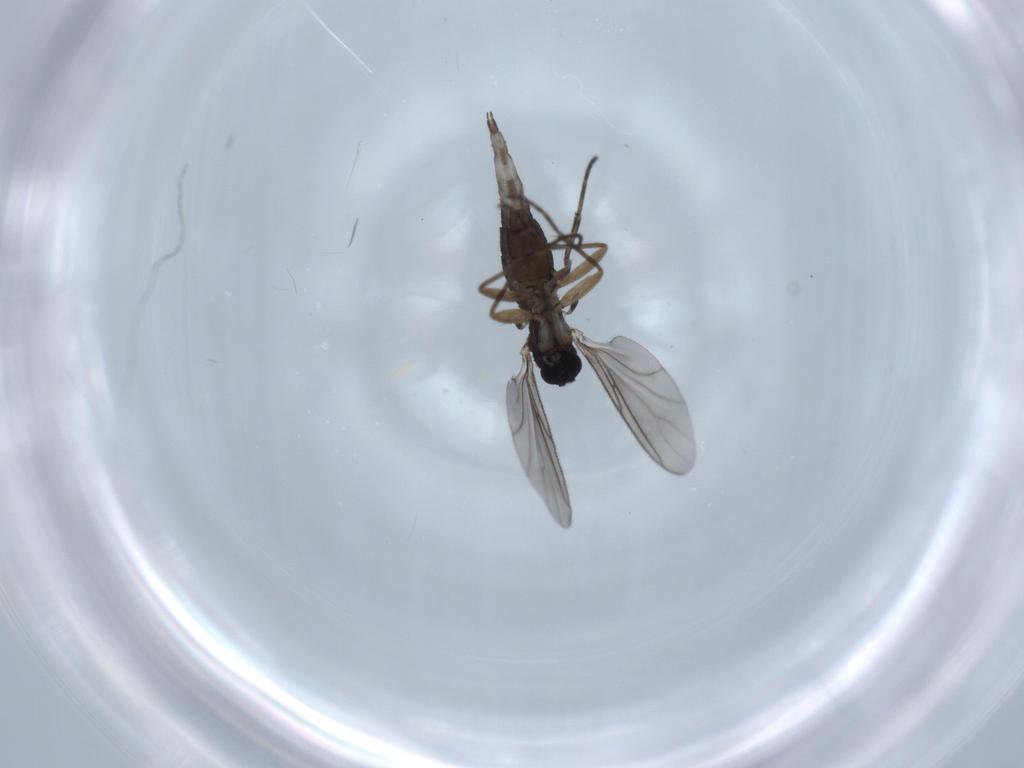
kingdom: Animalia
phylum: Arthropoda
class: Insecta
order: Diptera
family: Sciaridae
